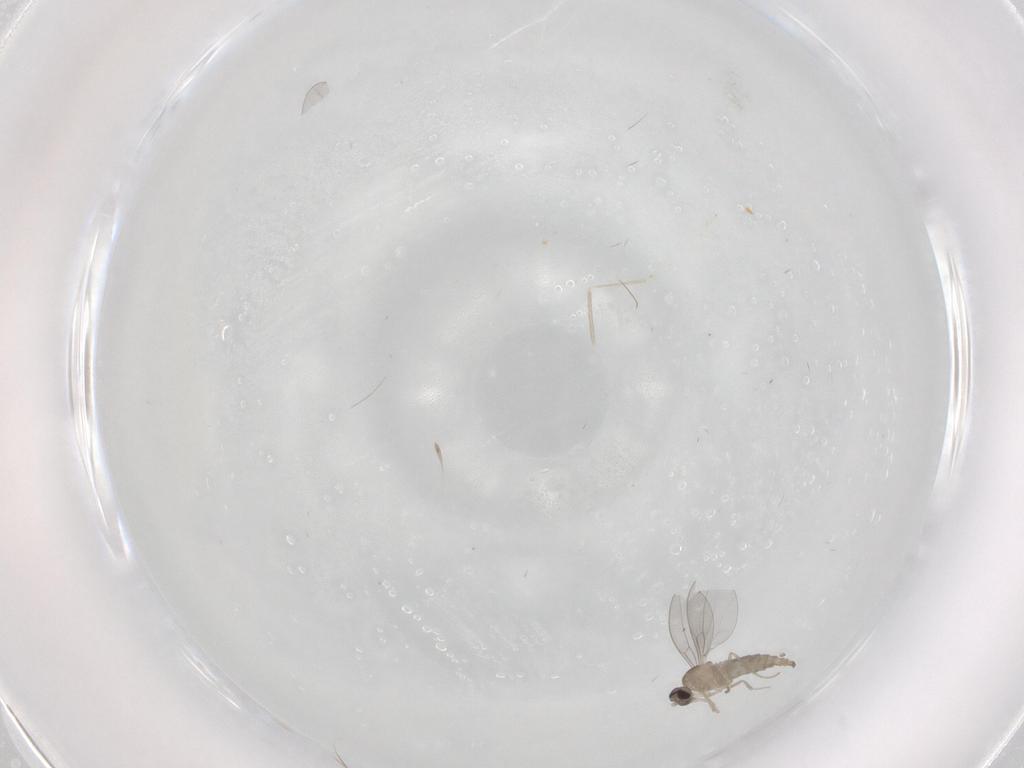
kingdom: Animalia
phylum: Arthropoda
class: Insecta
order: Diptera
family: Cecidomyiidae
